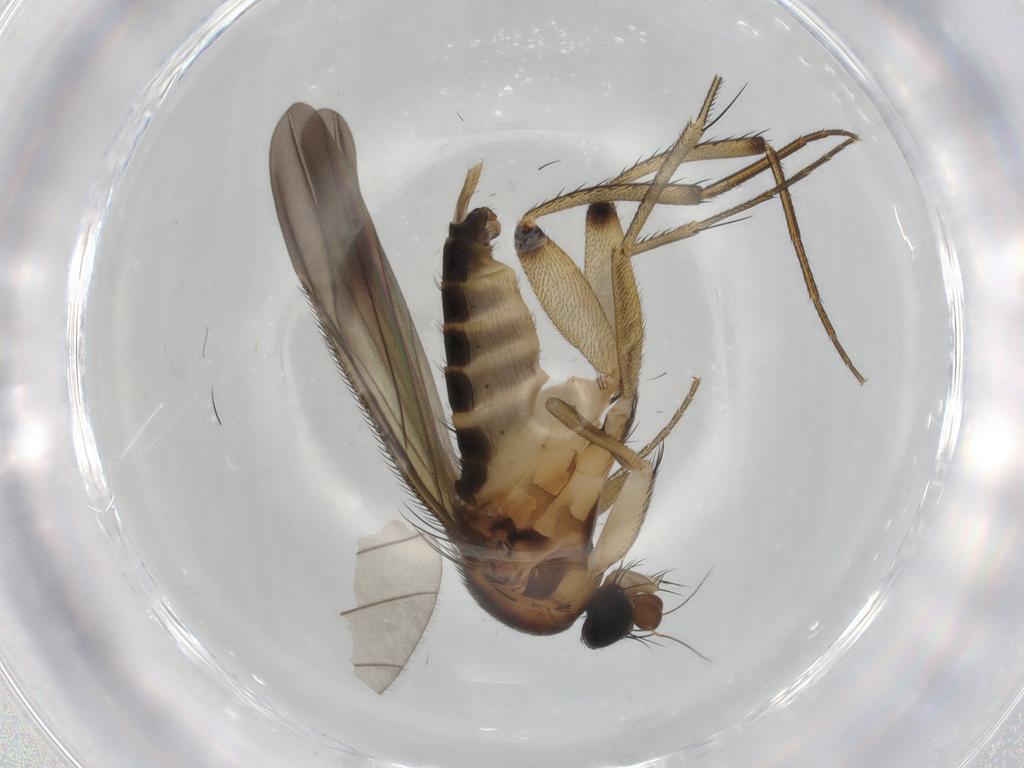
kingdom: Animalia
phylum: Arthropoda
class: Insecta
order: Diptera
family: Phoridae
